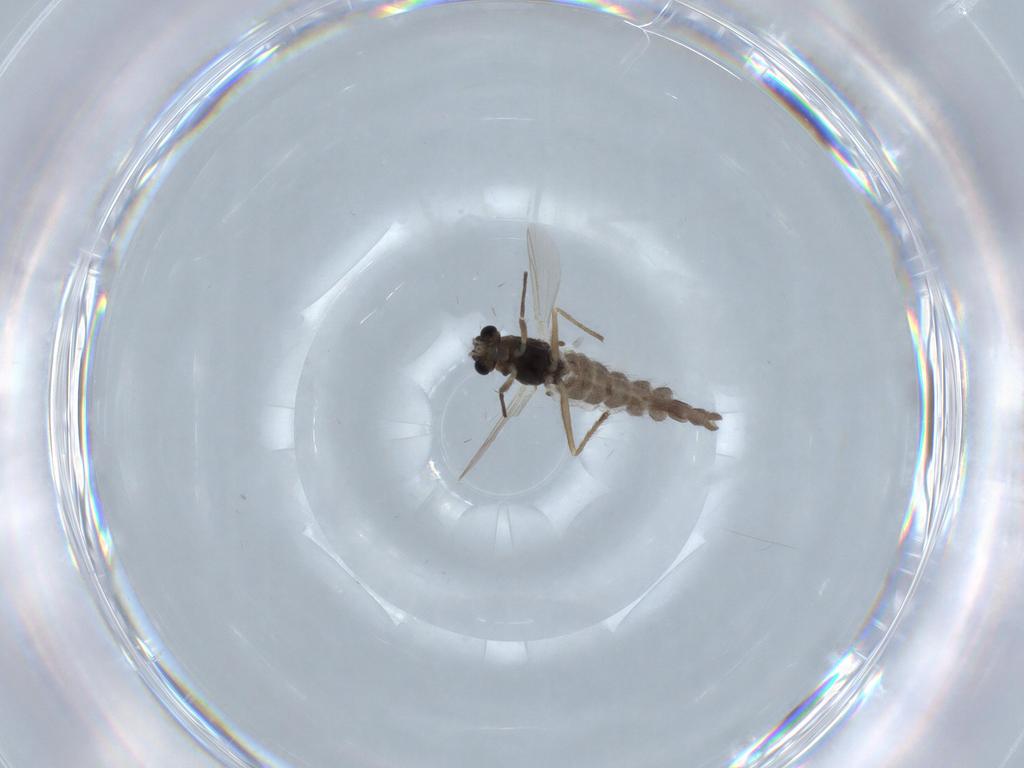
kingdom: Animalia
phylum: Arthropoda
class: Insecta
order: Diptera
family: Chironomidae
